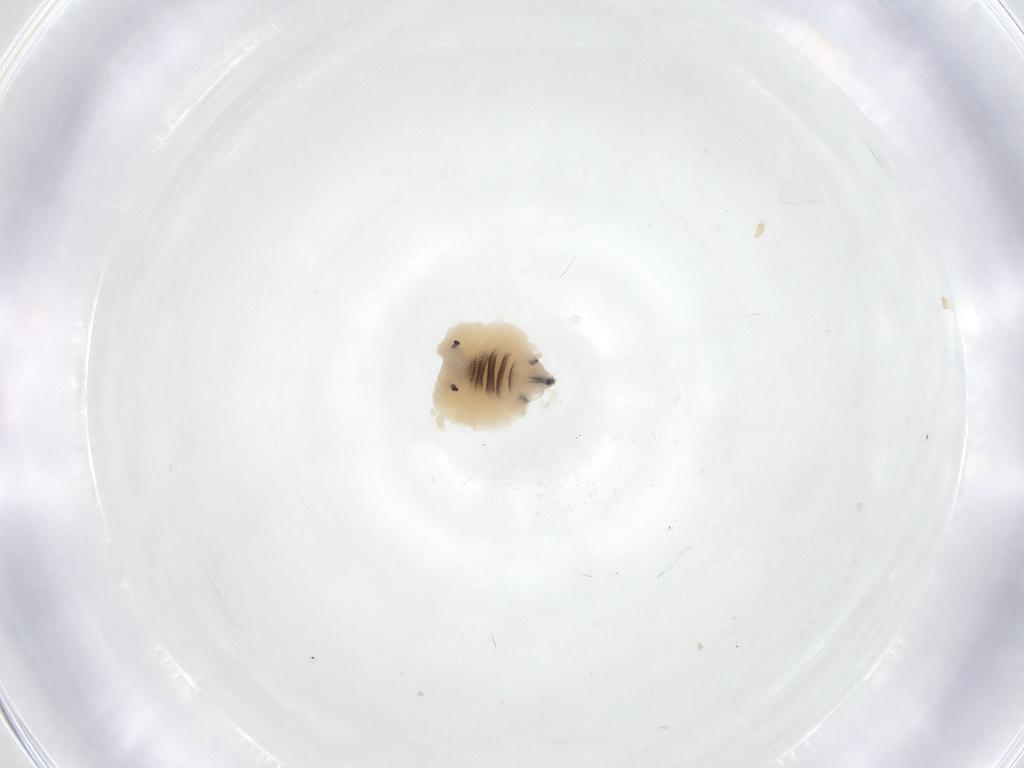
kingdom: Animalia
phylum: Arthropoda
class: Insecta
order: Diptera
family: Fergusoninidae
